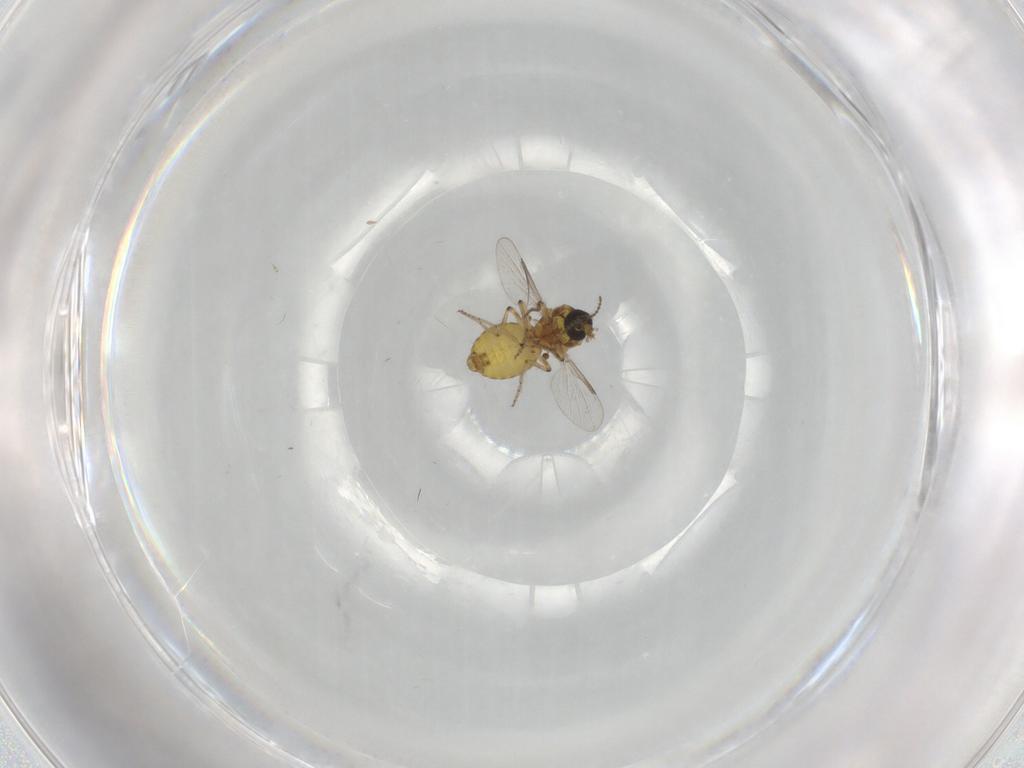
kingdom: Animalia
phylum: Arthropoda
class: Insecta
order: Diptera
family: Ceratopogonidae
